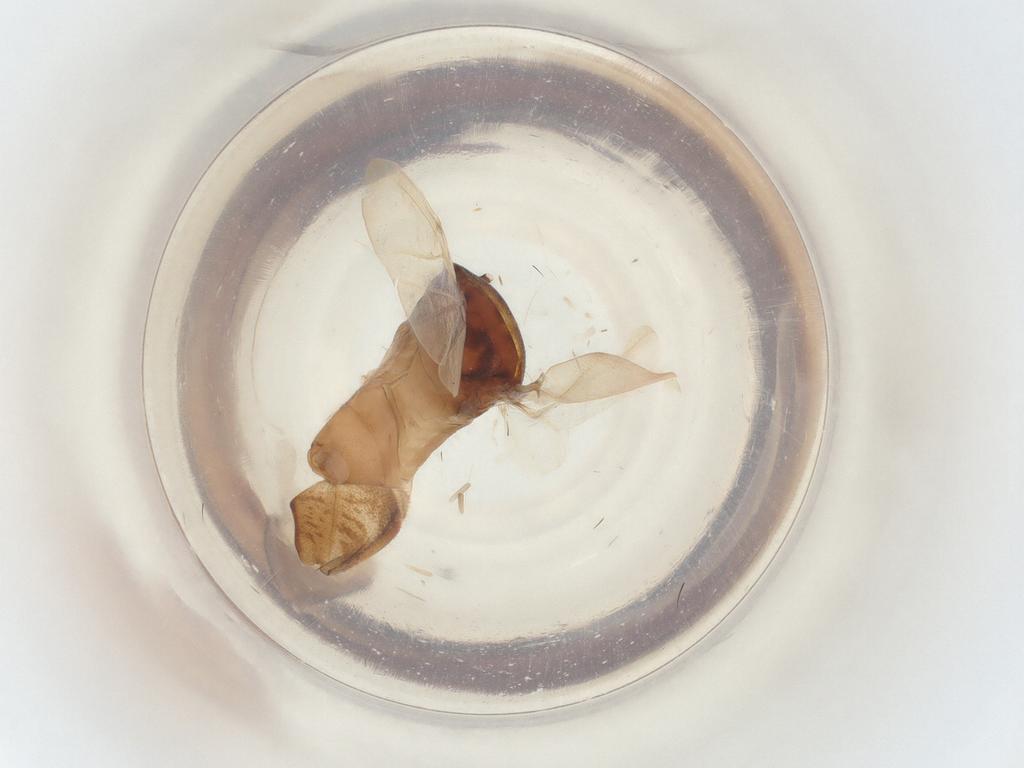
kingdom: Animalia
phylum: Arthropoda
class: Insecta
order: Hemiptera
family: Miridae
